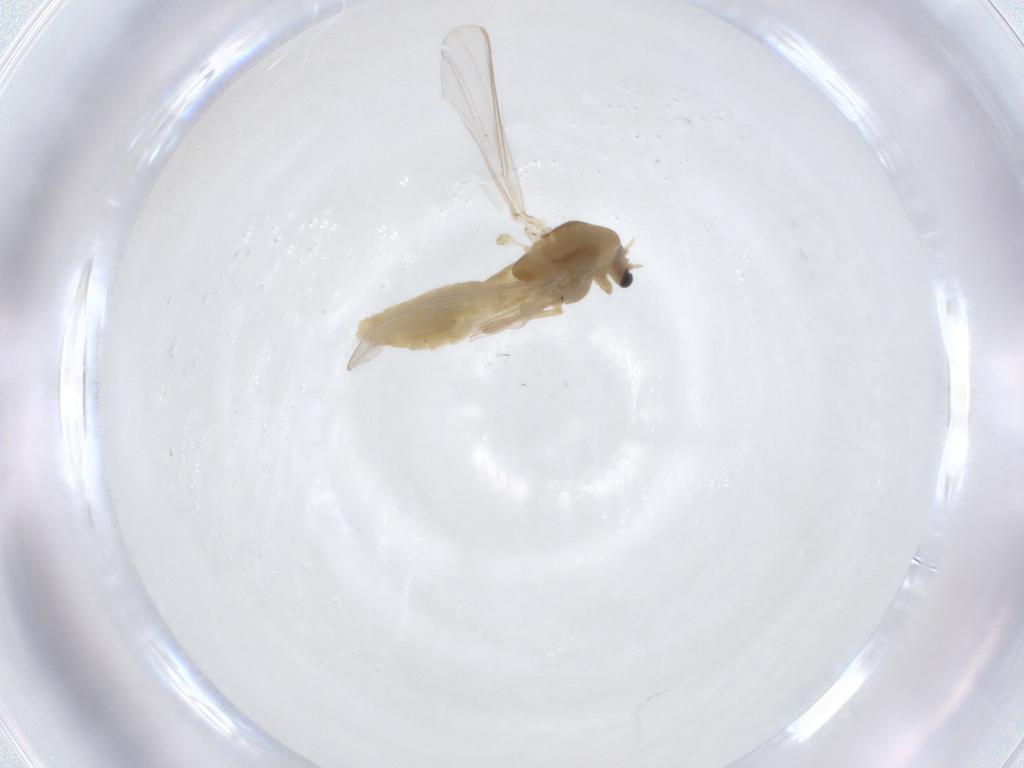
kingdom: Animalia
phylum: Arthropoda
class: Insecta
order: Diptera
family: Chironomidae
